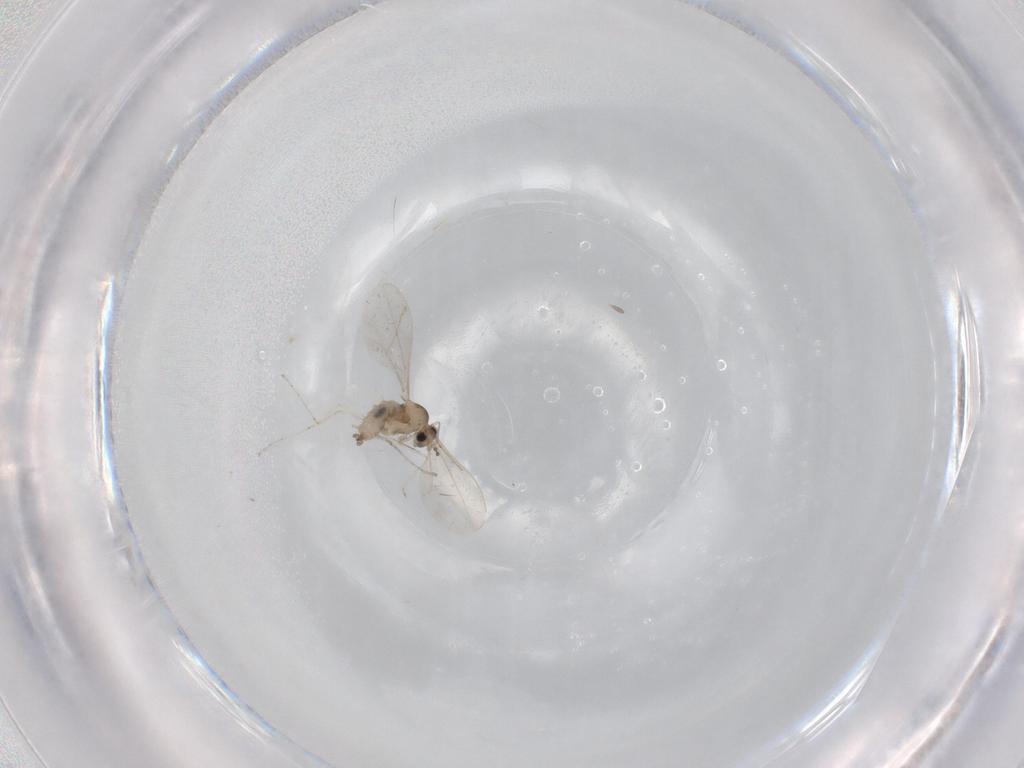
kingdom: Animalia
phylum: Arthropoda
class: Insecta
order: Diptera
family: Cecidomyiidae
